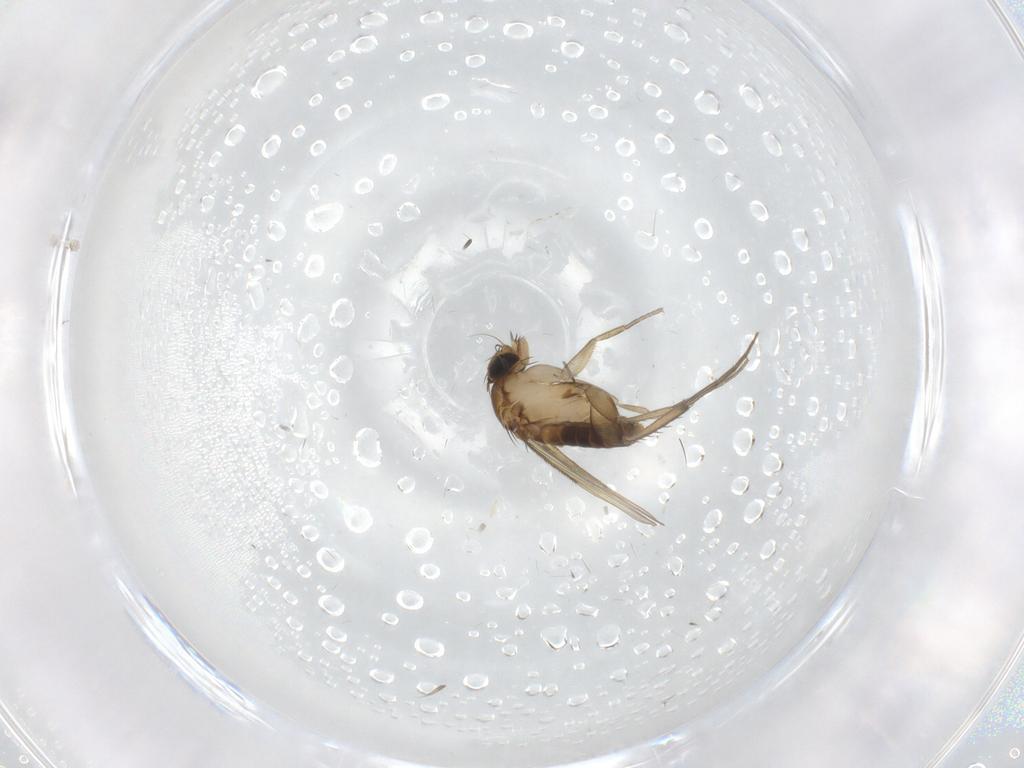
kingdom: Animalia
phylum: Arthropoda
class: Insecta
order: Diptera
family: Phoridae
